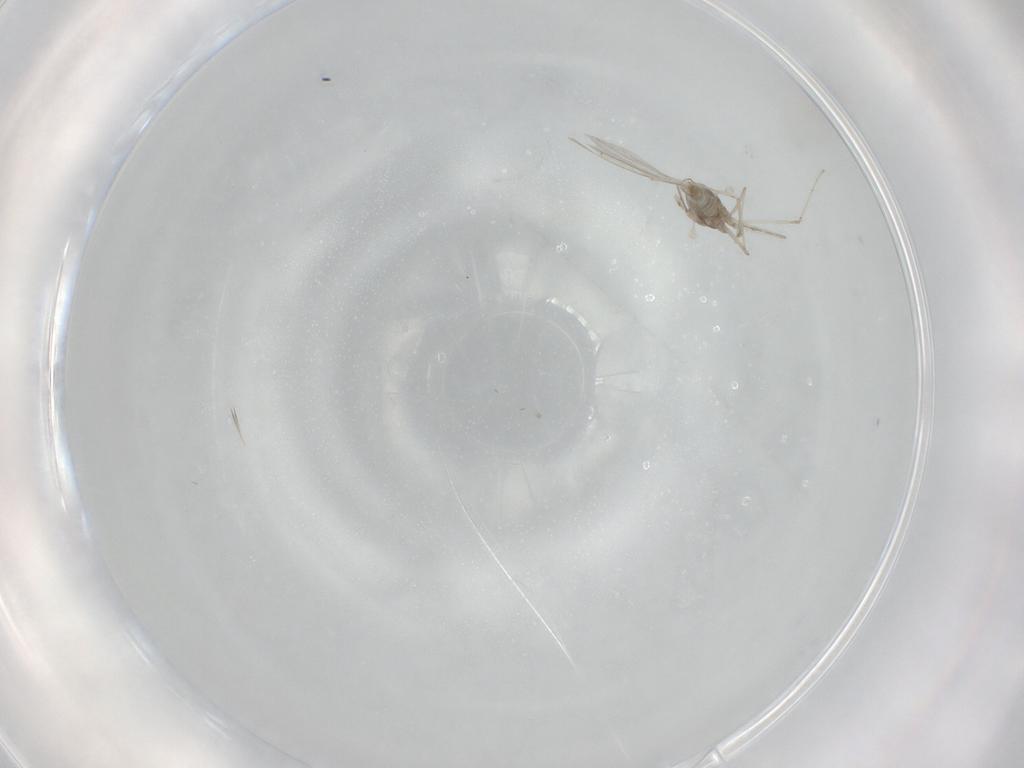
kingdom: Animalia
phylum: Arthropoda
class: Insecta
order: Diptera
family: Cecidomyiidae
